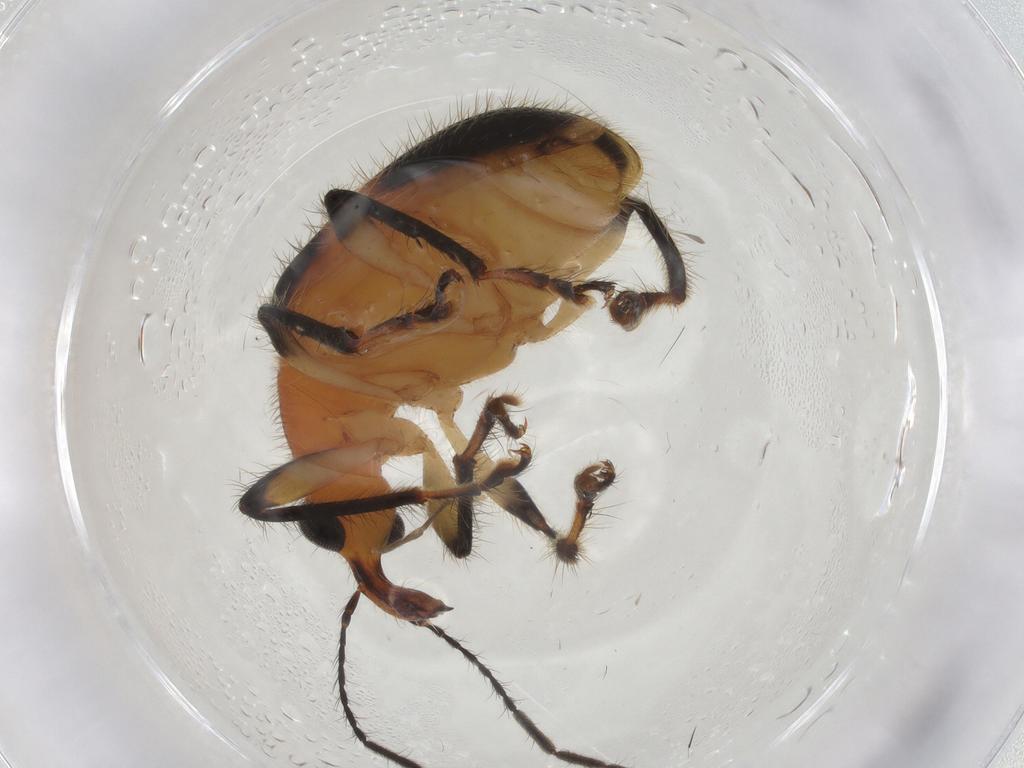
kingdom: Animalia
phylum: Arthropoda
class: Insecta
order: Coleoptera
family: Attelabidae
